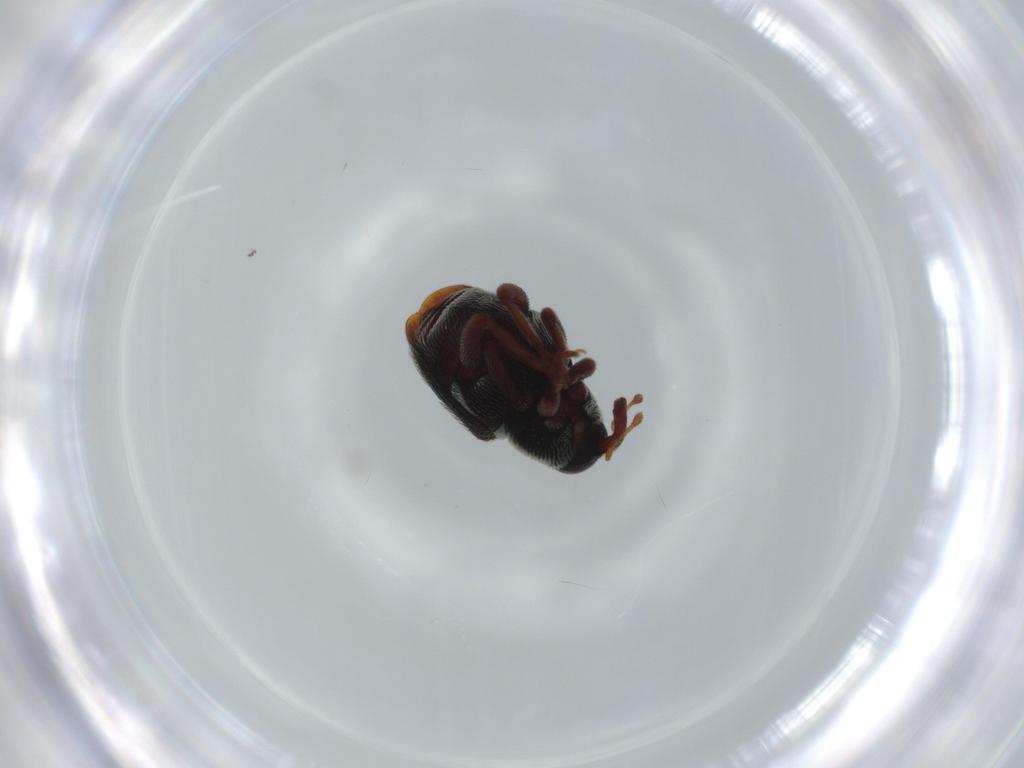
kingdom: Animalia
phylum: Arthropoda
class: Insecta
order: Coleoptera
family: Curculionidae
